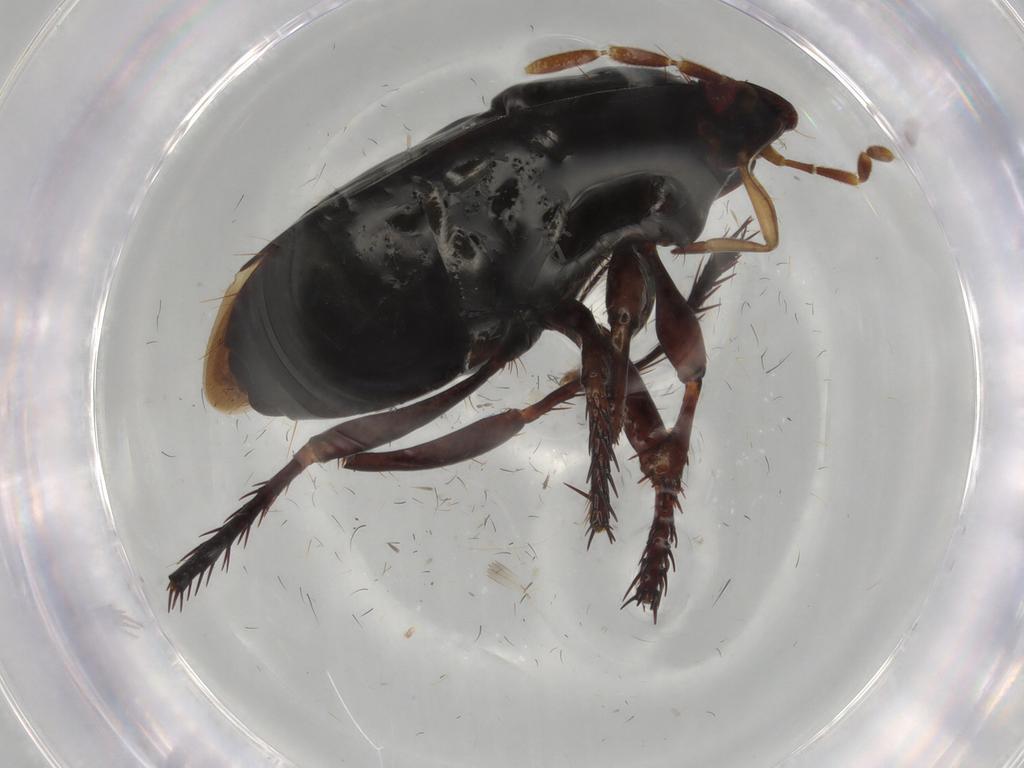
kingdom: Animalia
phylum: Arthropoda
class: Insecta
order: Hemiptera
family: Cydnidae
